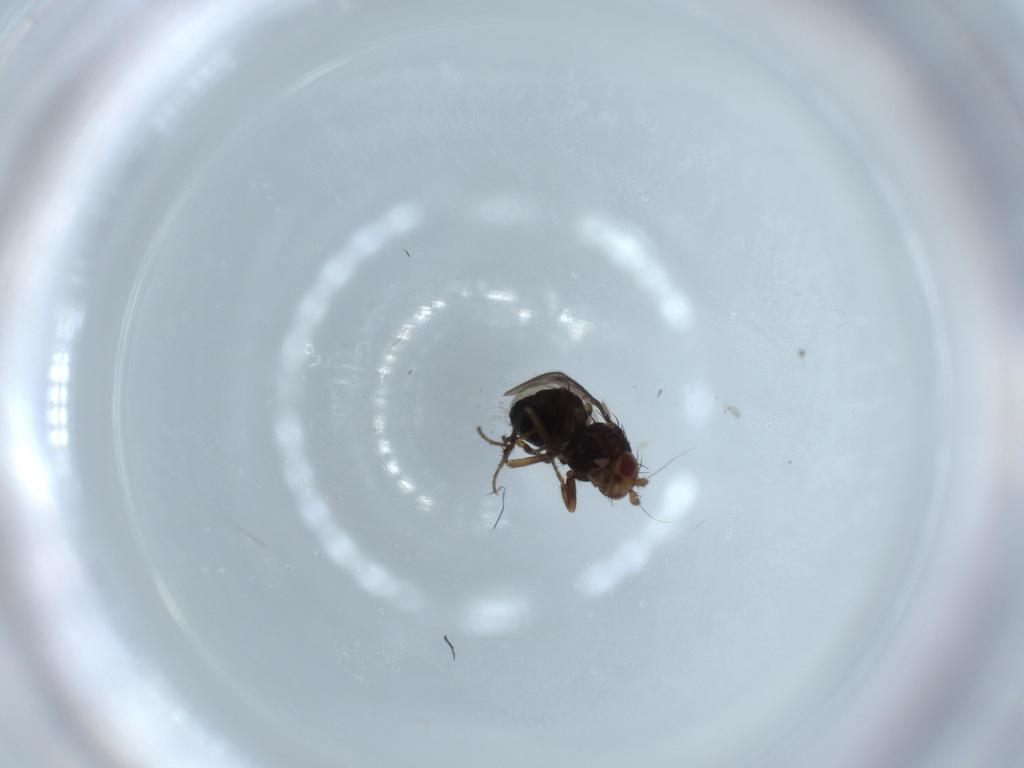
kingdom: Animalia
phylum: Arthropoda
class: Insecta
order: Diptera
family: Sphaeroceridae
